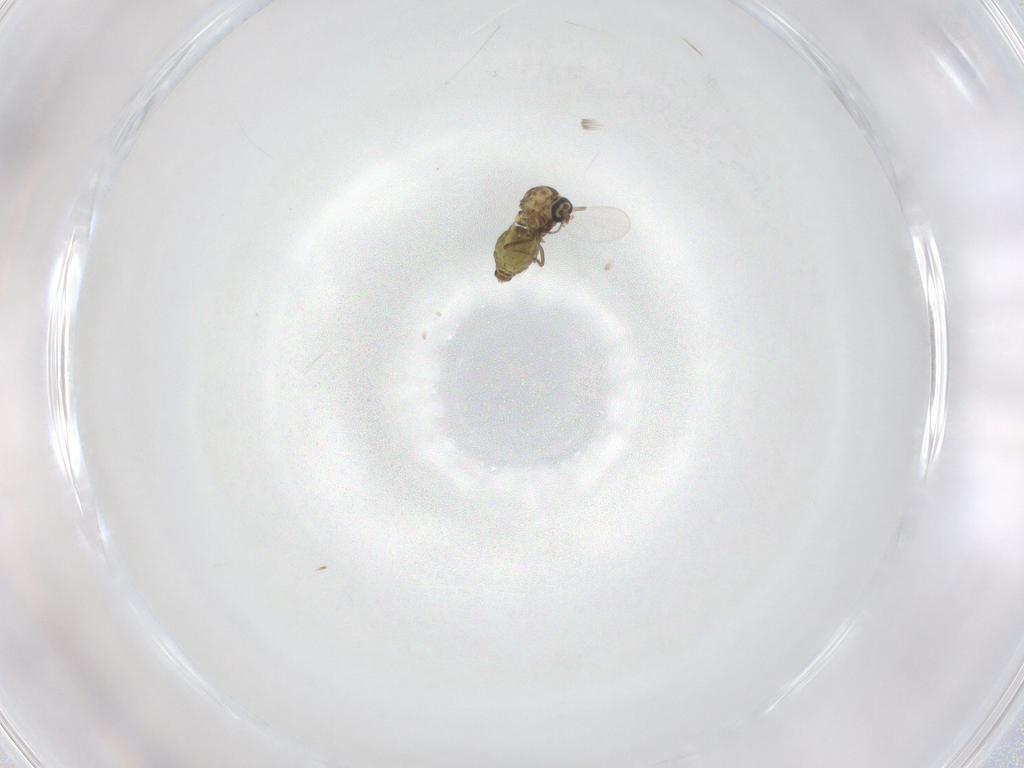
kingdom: Animalia
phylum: Arthropoda
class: Insecta
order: Diptera
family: Ceratopogonidae
